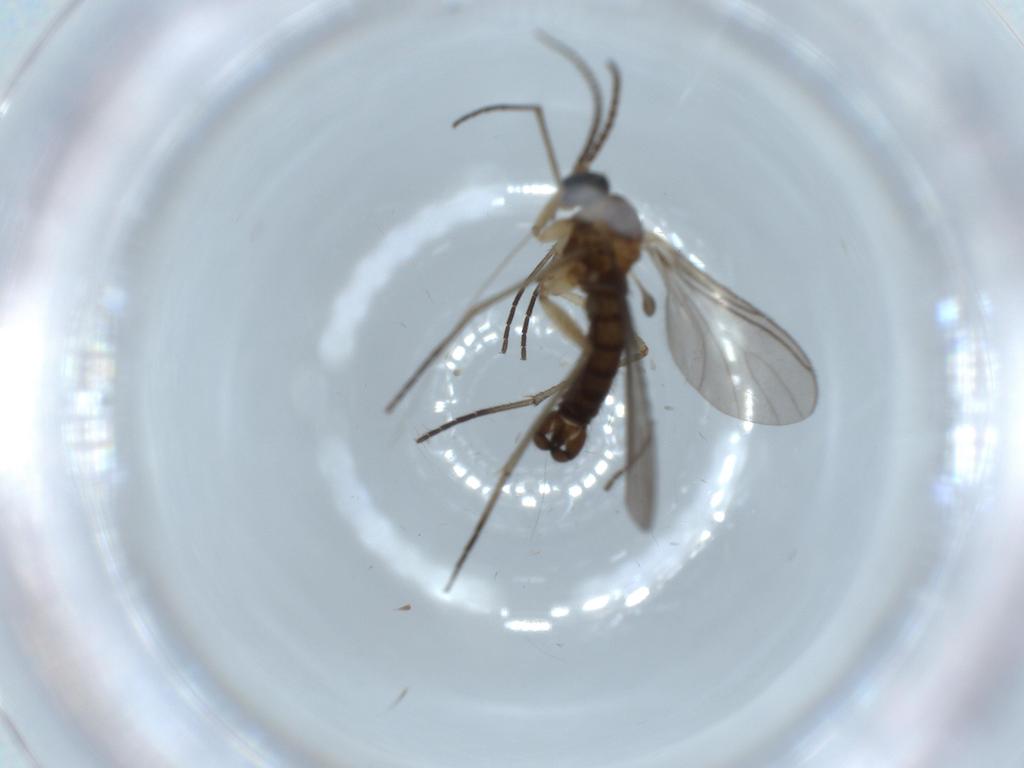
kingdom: Animalia
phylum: Arthropoda
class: Insecta
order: Diptera
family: Sciaridae
